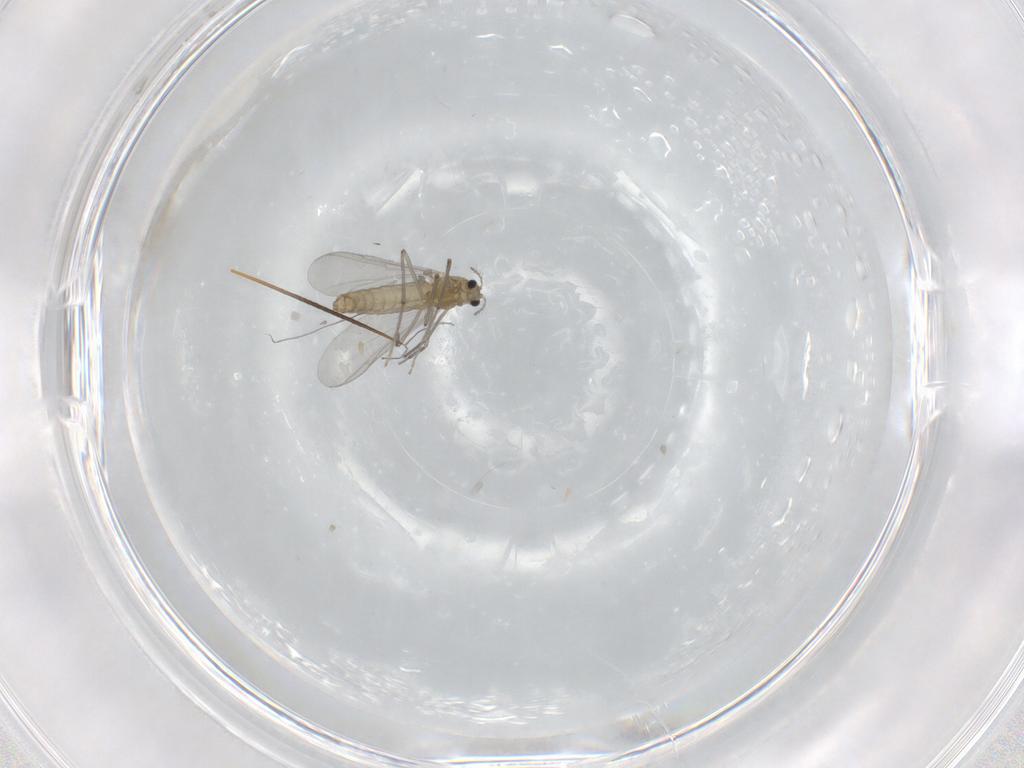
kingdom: Animalia
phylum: Arthropoda
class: Insecta
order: Diptera
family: Chironomidae
